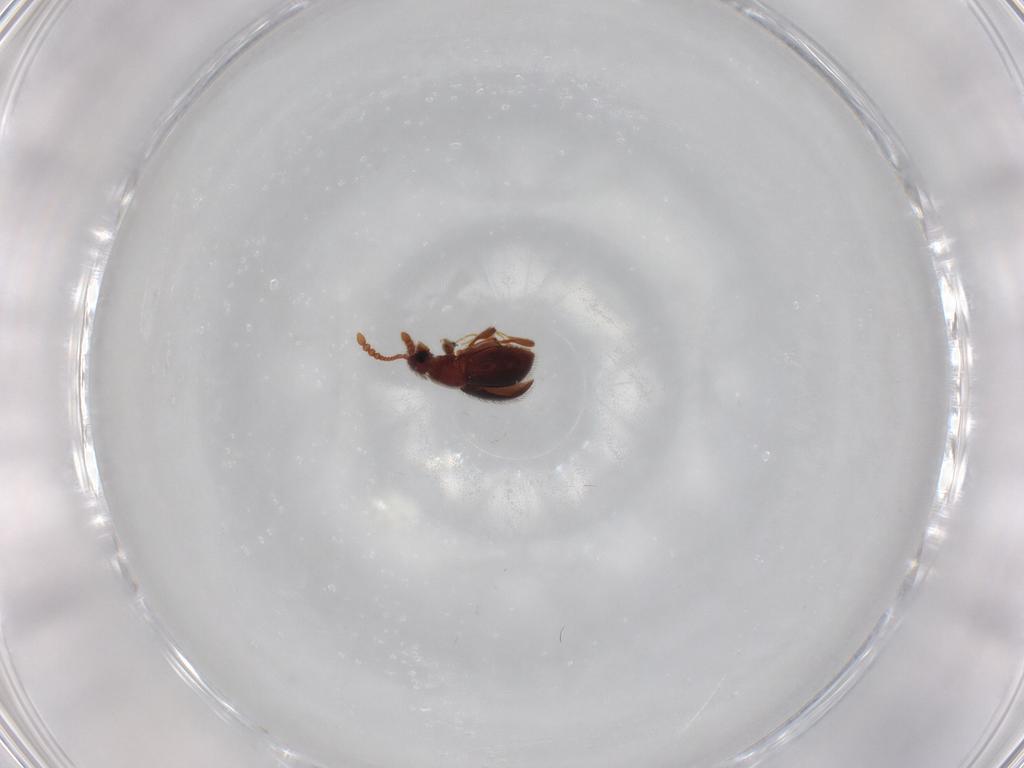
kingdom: Animalia
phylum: Arthropoda
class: Insecta
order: Coleoptera
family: Staphylinidae
